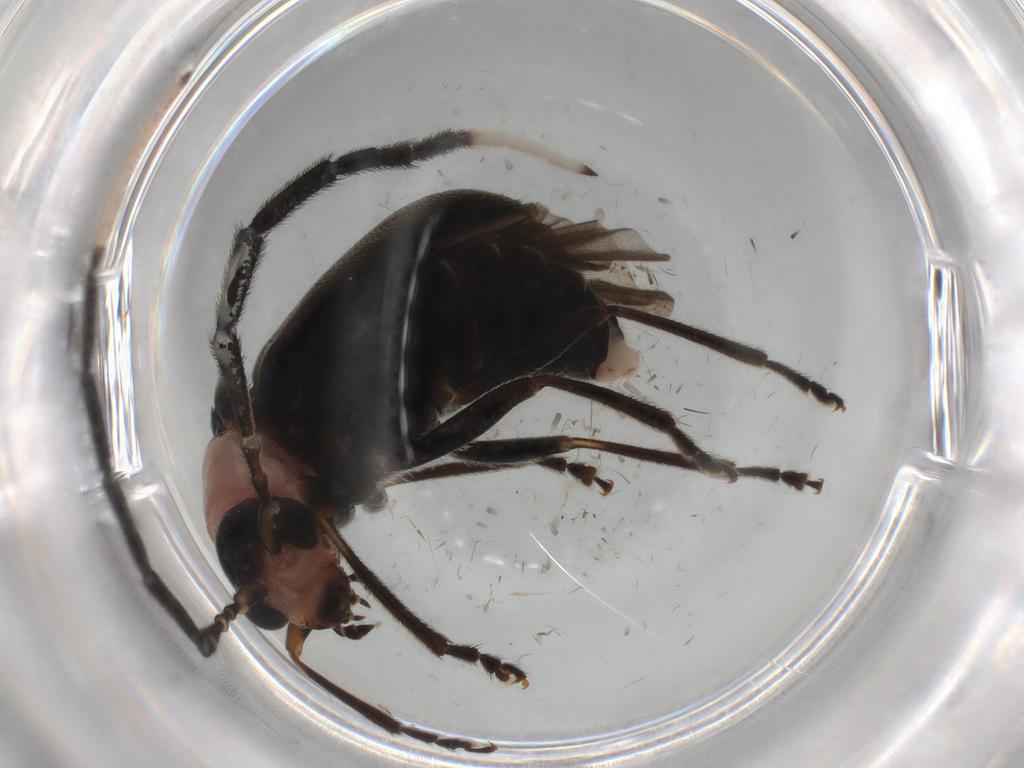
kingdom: Animalia
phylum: Arthropoda
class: Insecta
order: Coleoptera
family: Chrysomelidae
